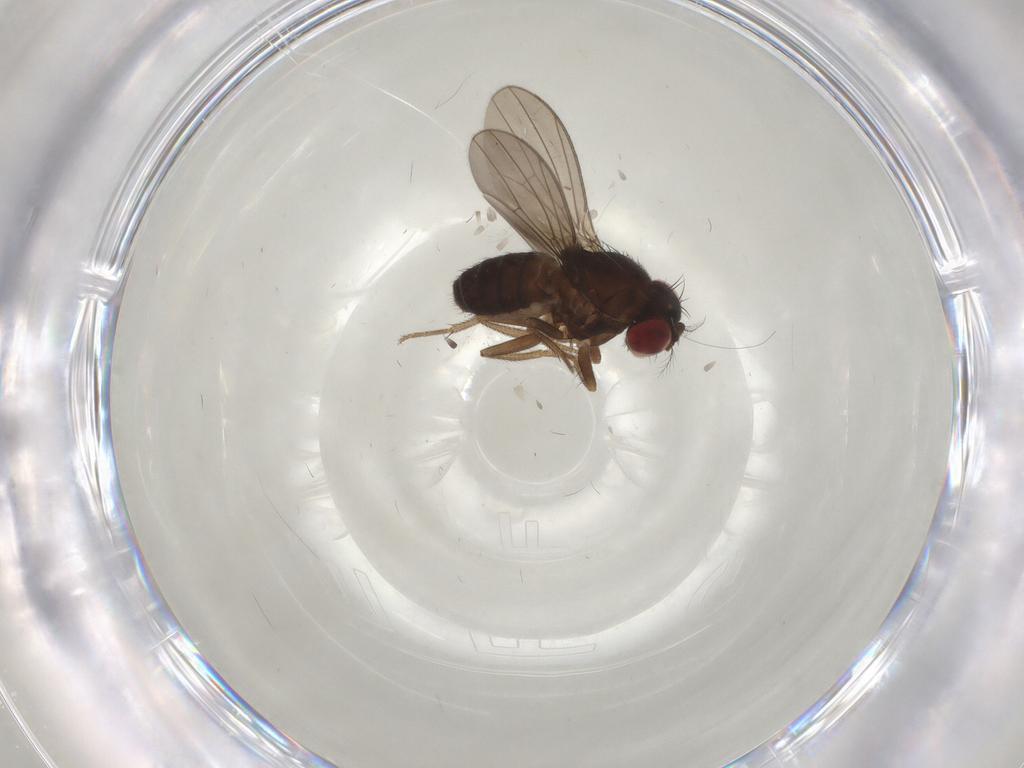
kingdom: Animalia
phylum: Arthropoda
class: Insecta
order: Diptera
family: Drosophilidae
